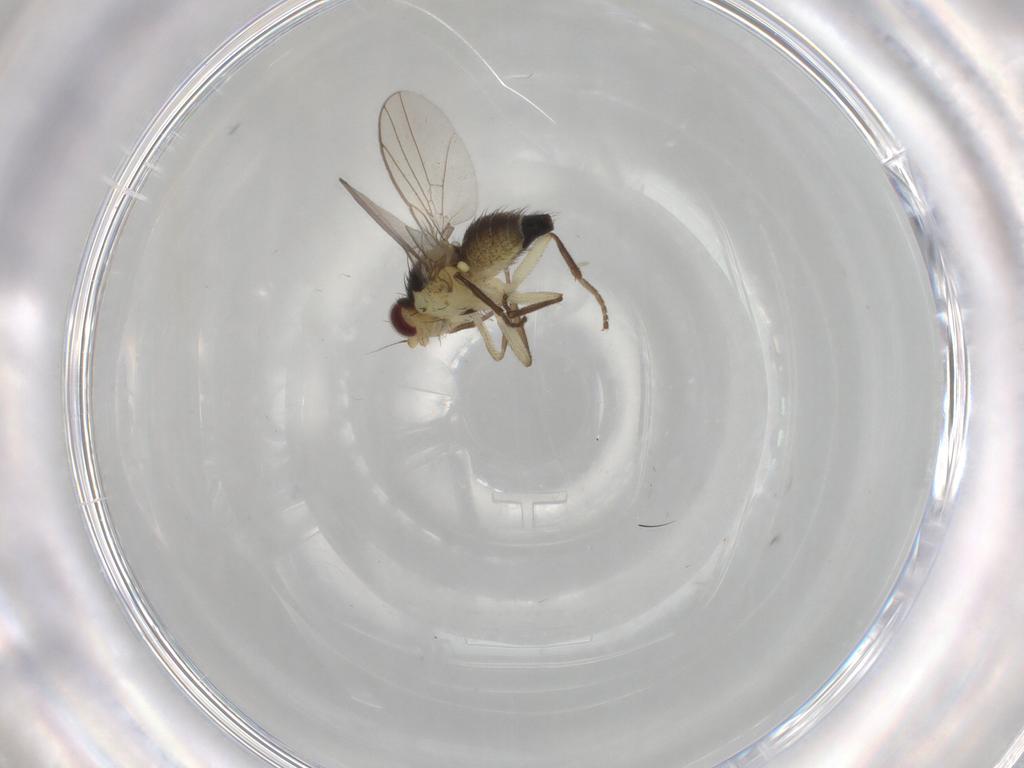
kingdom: Animalia
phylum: Arthropoda
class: Insecta
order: Diptera
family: Agromyzidae
